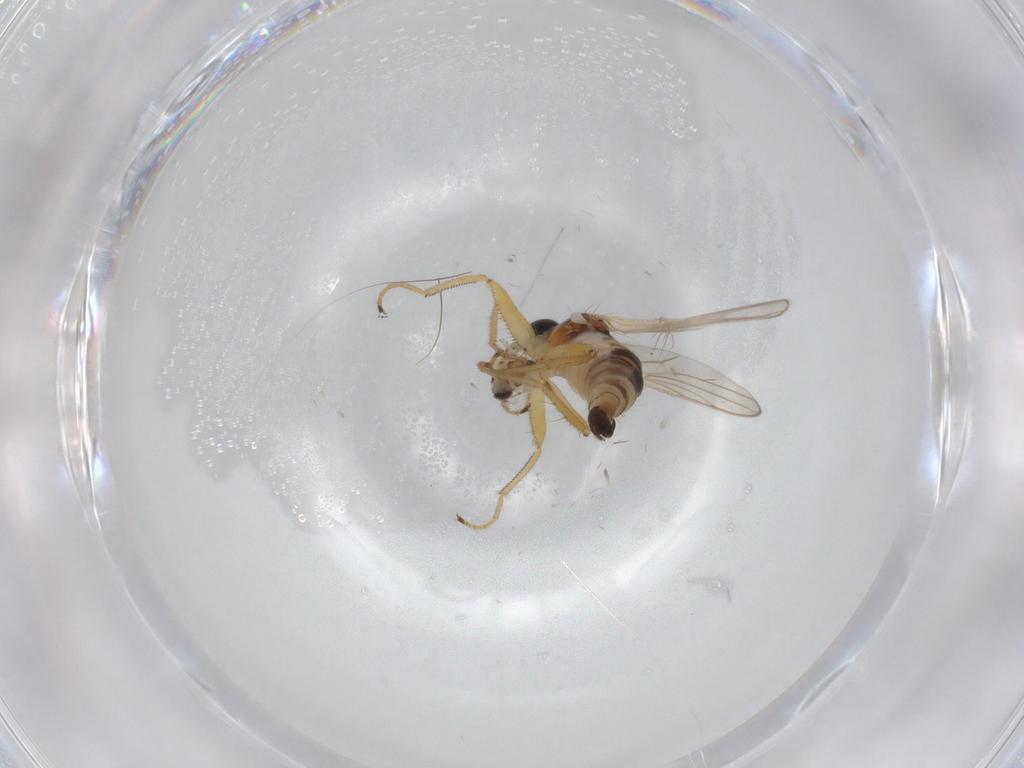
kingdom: Animalia
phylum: Arthropoda
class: Insecta
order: Diptera
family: Hybotidae
